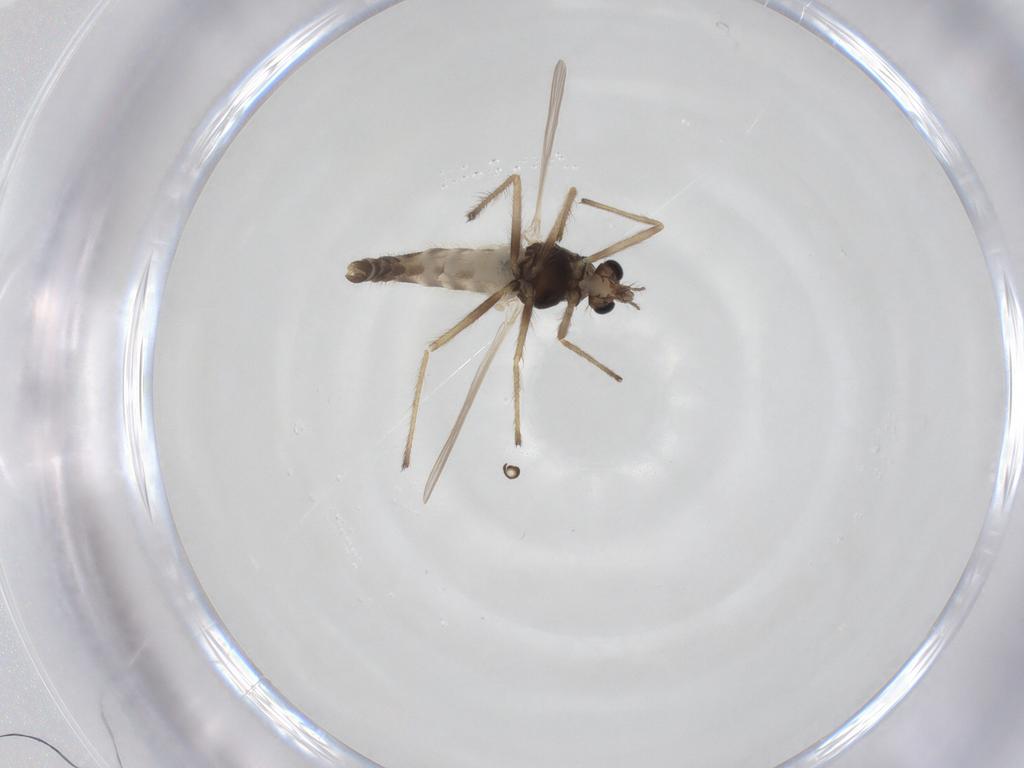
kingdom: Animalia
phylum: Arthropoda
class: Insecta
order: Diptera
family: Chironomidae
